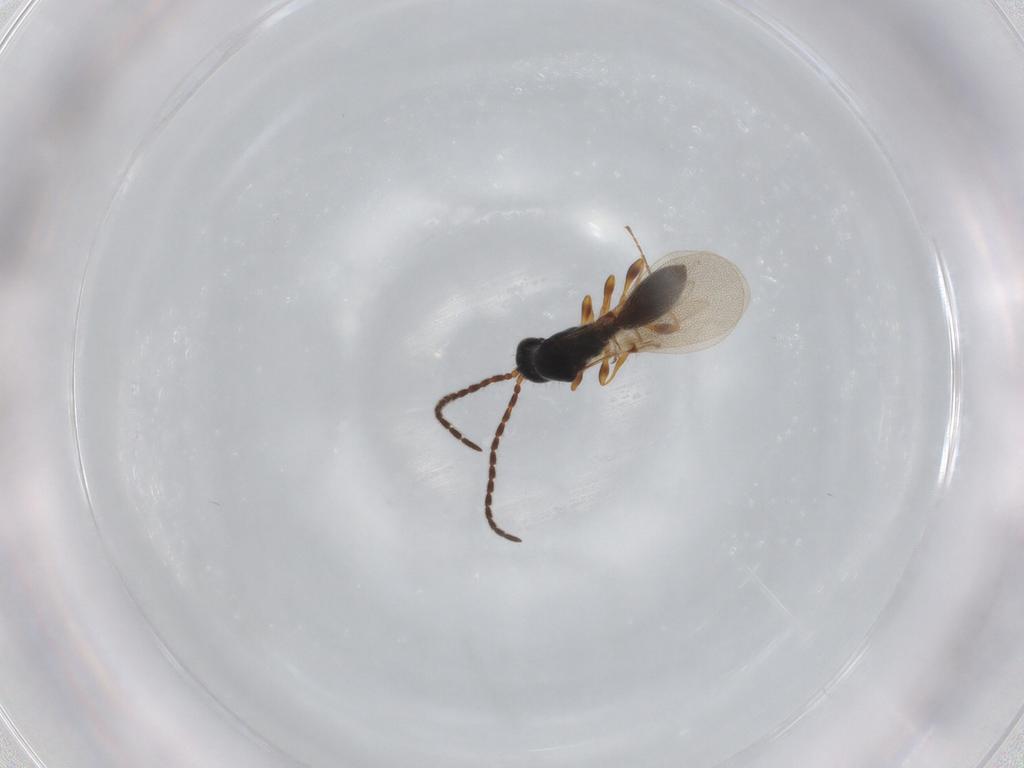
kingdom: Animalia
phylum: Arthropoda
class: Insecta
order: Hymenoptera
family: Diapriidae
